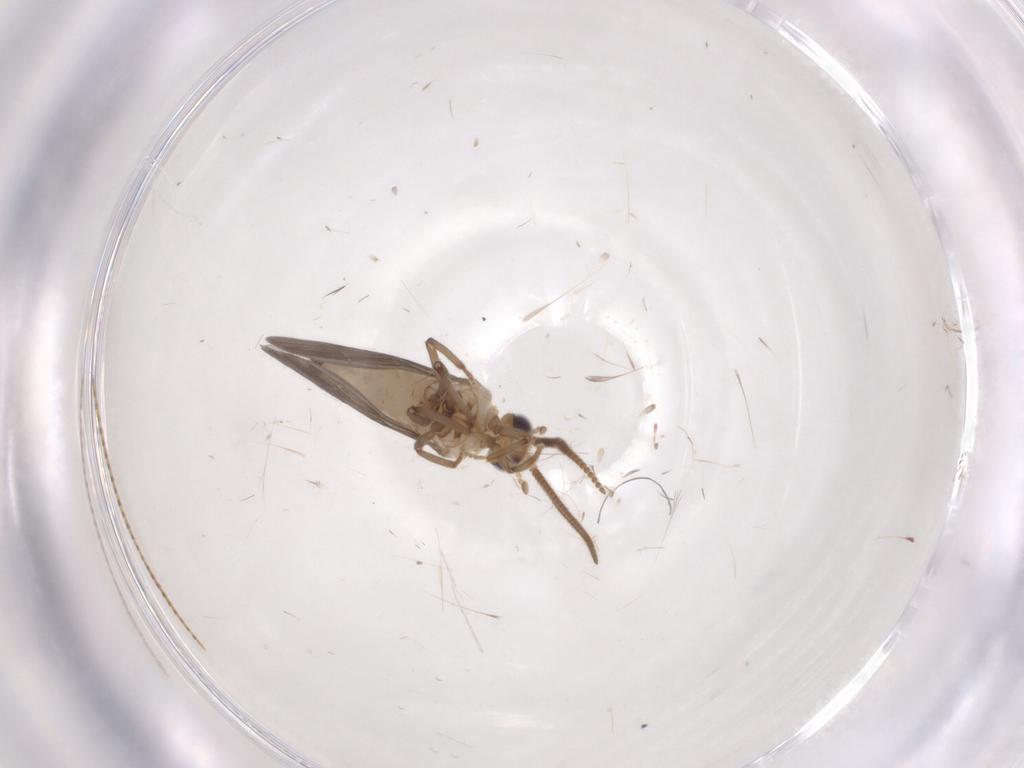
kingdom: Animalia
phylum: Arthropoda
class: Insecta
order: Neuroptera
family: Coniopterygidae
